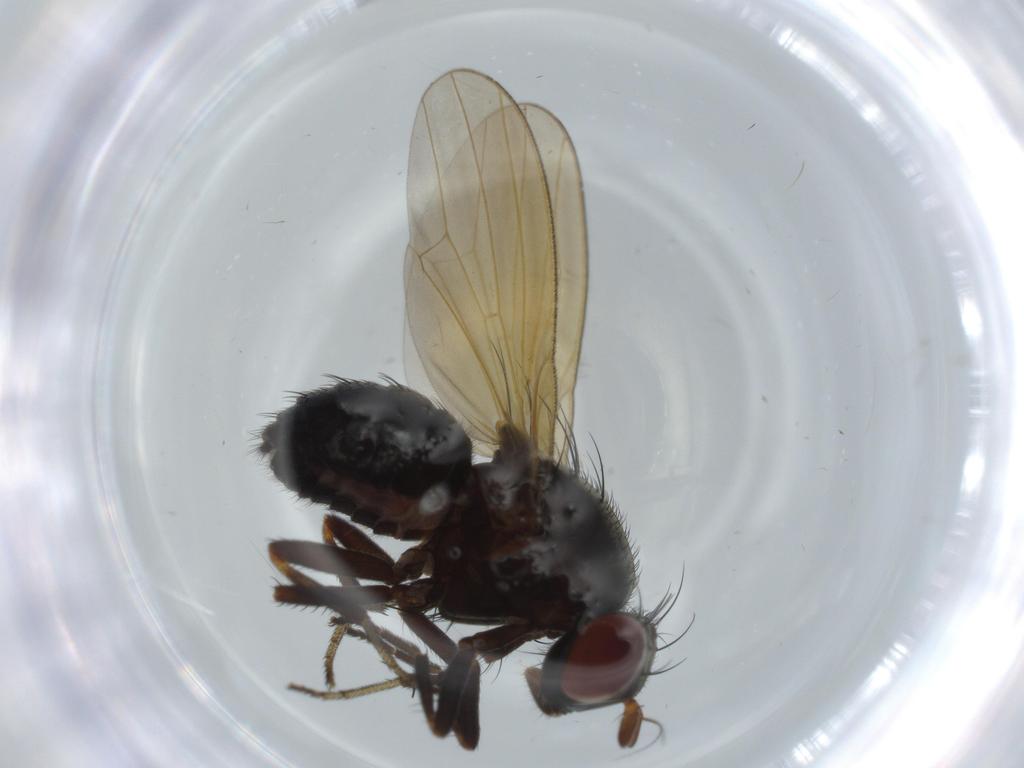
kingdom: Animalia
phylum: Arthropoda
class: Insecta
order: Diptera
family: Lauxaniidae
